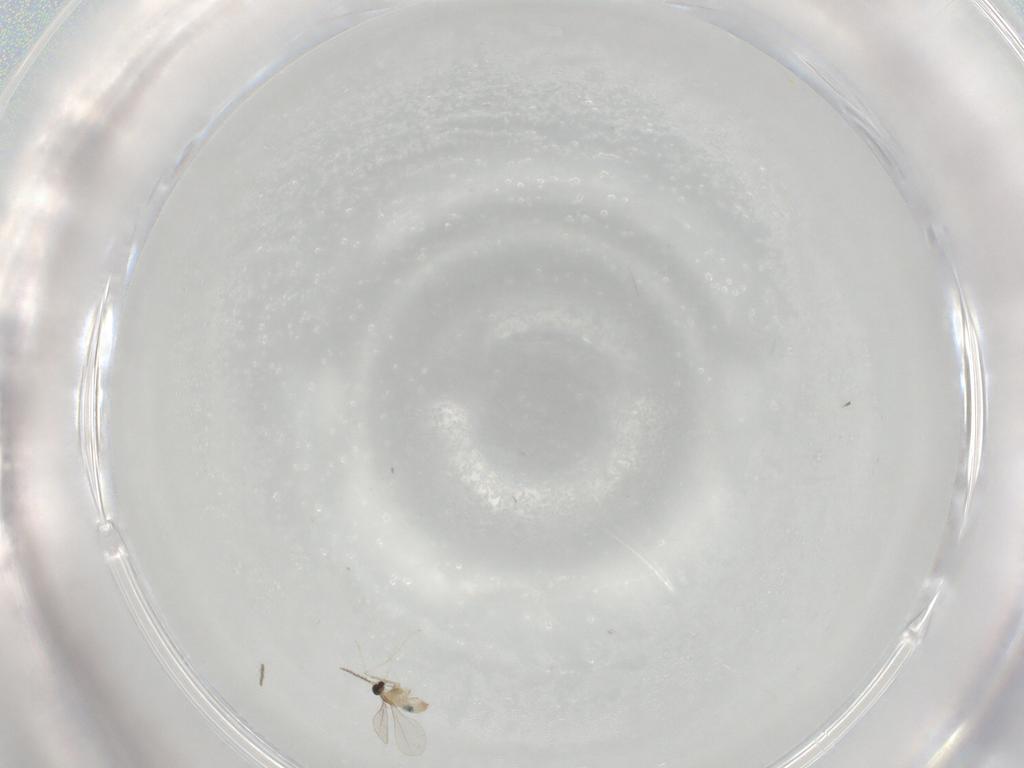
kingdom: Animalia
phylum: Arthropoda
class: Insecta
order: Diptera
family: Cecidomyiidae
